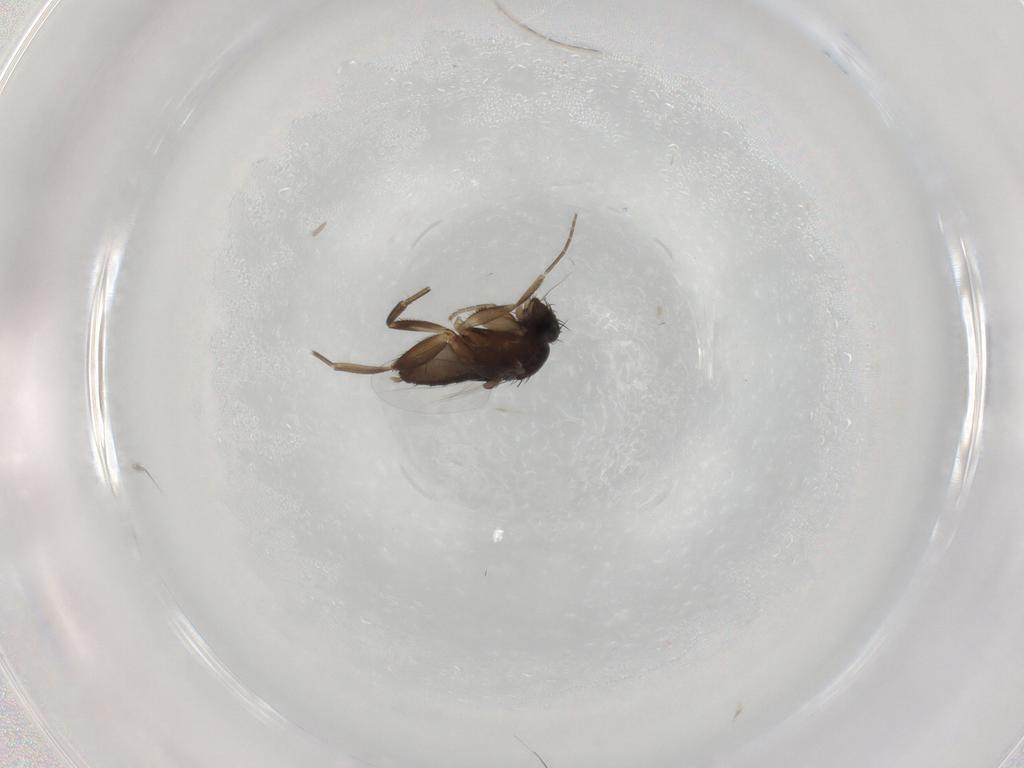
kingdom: Animalia
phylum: Arthropoda
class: Insecta
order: Diptera
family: Phoridae
